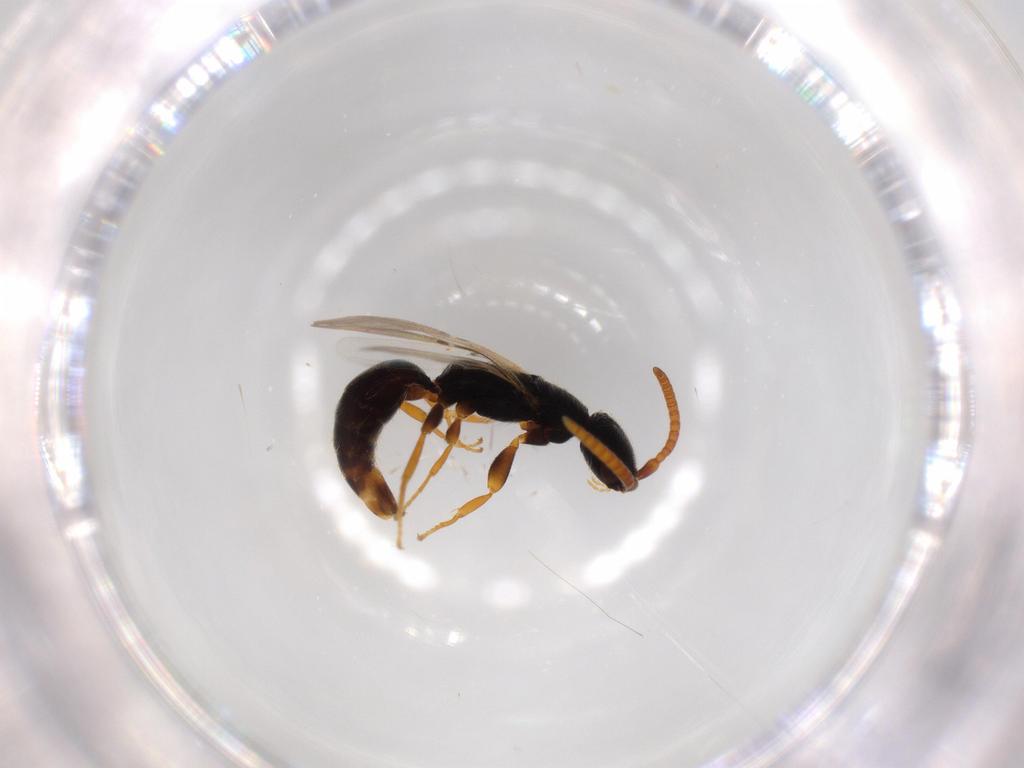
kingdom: Animalia
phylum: Arthropoda
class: Insecta
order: Hymenoptera
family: Bethylidae
